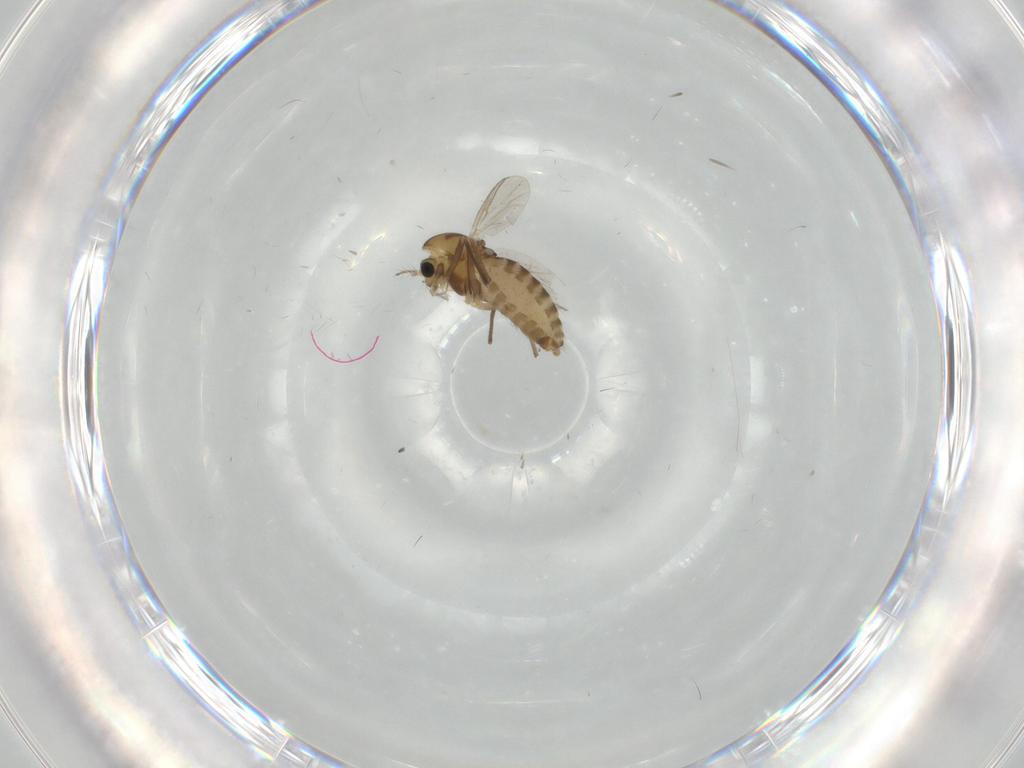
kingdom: Animalia
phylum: Arthropoda
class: Insecta
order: Diptera
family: Chironomidae
